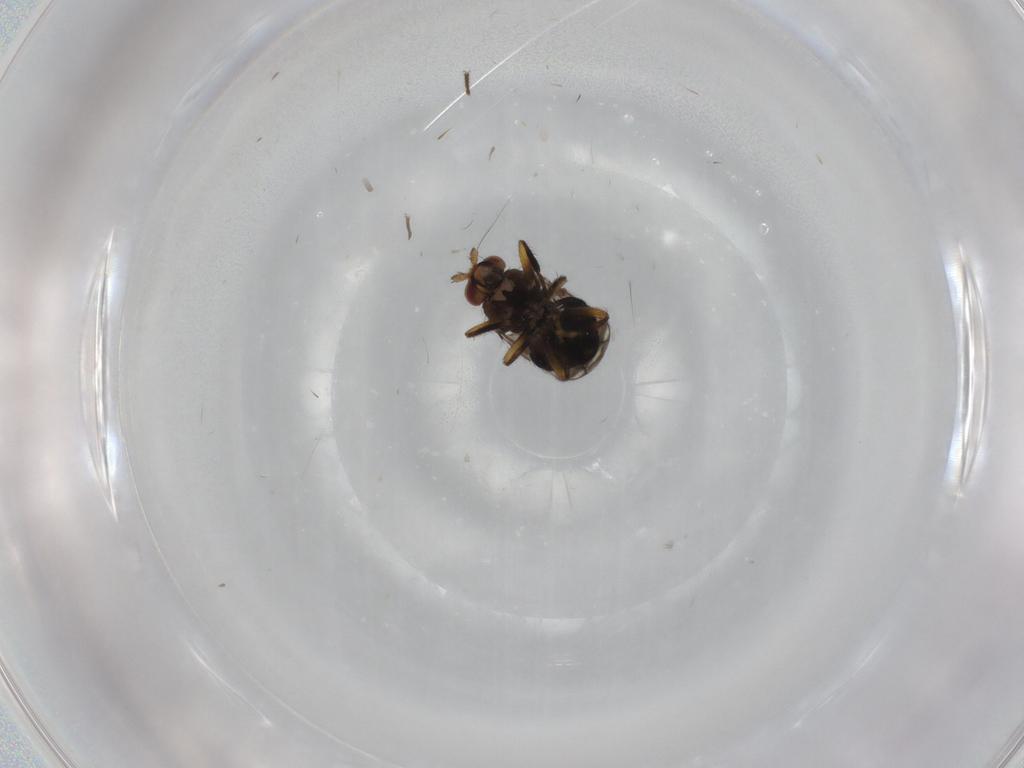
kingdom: Animalia
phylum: Arthropoda
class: Insecta
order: Diptera
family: Sphaeroceridae
